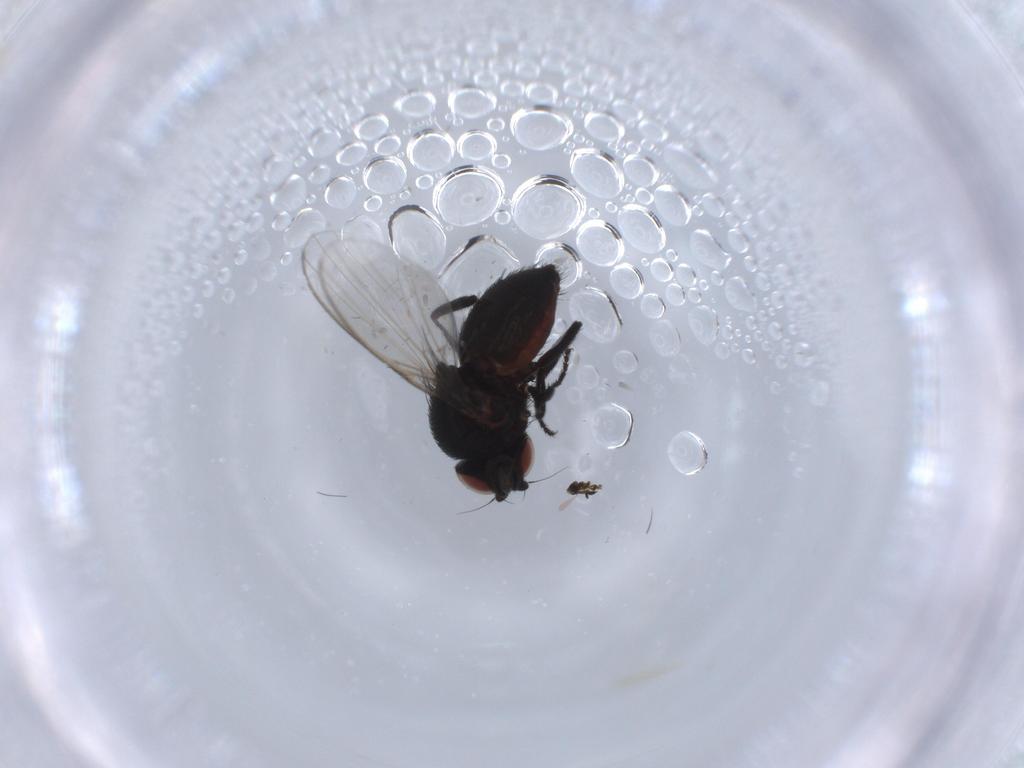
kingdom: Animalia
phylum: Arthropoda
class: Insecta
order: Diptera
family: Milichiidae
